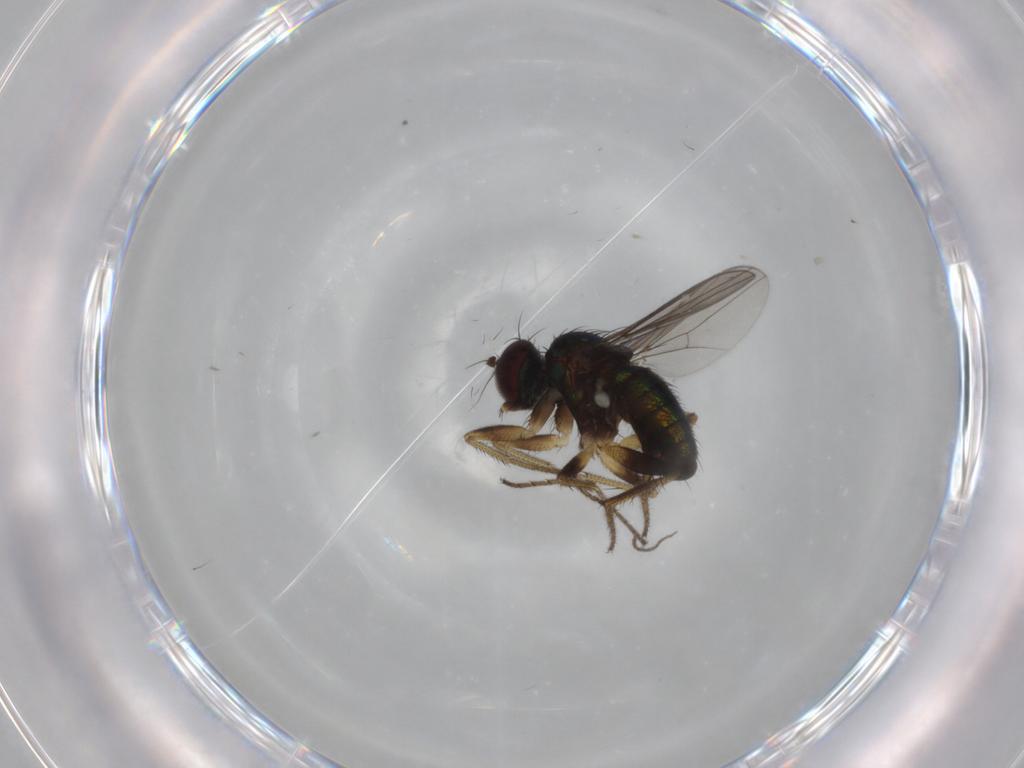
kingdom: Animalia
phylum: Arthropoda
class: Insecta
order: Diptera
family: Dolichopodidae
